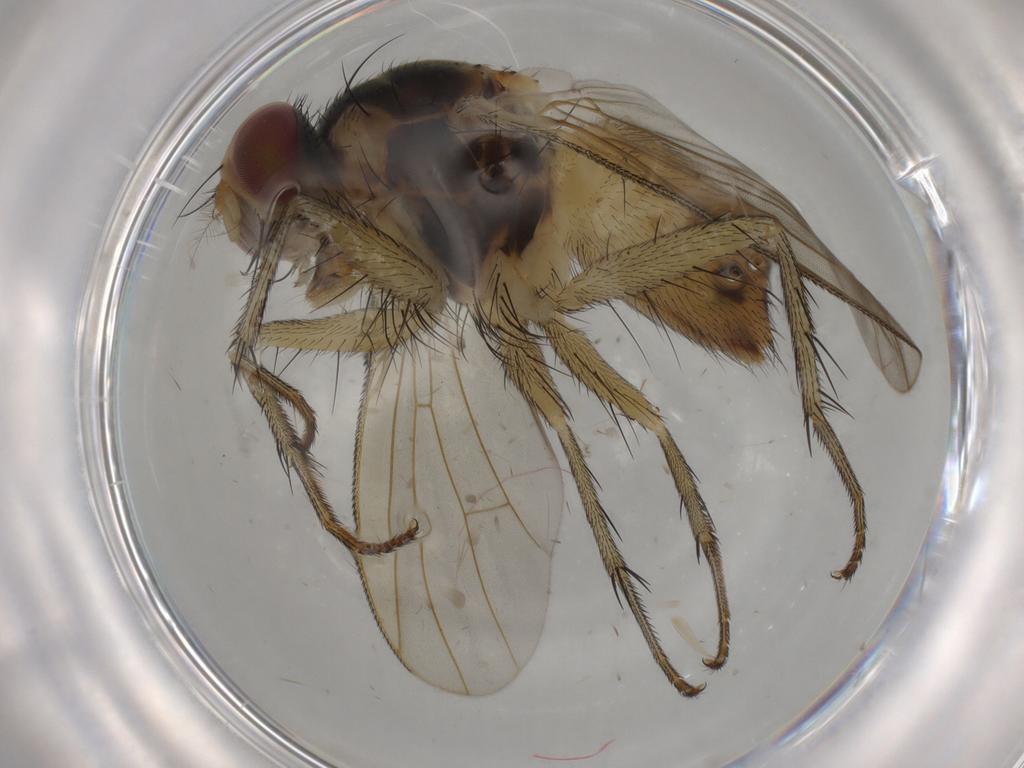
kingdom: Animalia
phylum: Arthropoda
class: Insecta
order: Diptera
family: Muscidae
